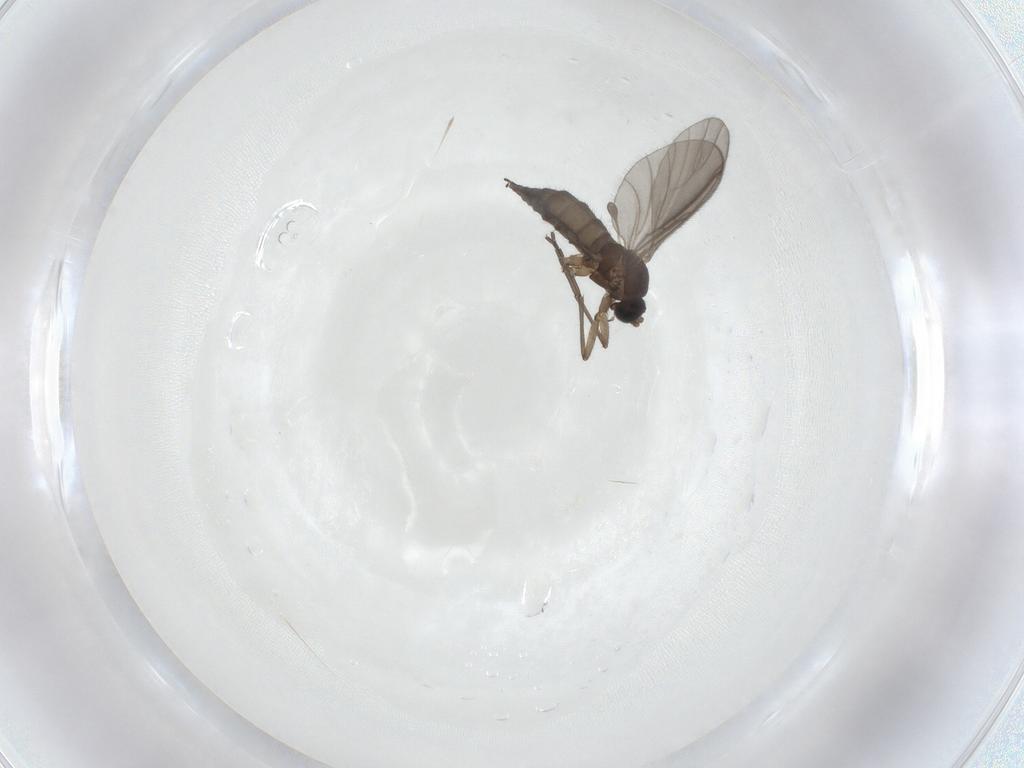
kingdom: Animalia
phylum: Arthropoda
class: Insecta
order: Diptera
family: Sciaridae
